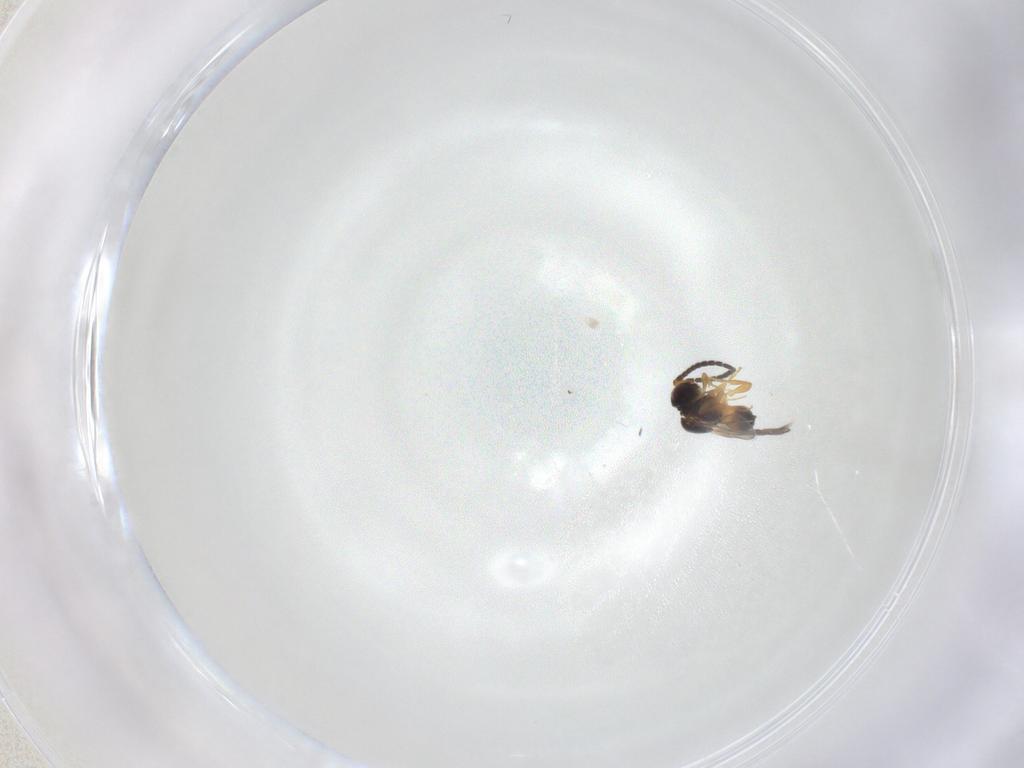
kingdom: Animalia
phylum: Arthropoda
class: Insecta
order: Hymenoptera
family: Ceraphronidae
